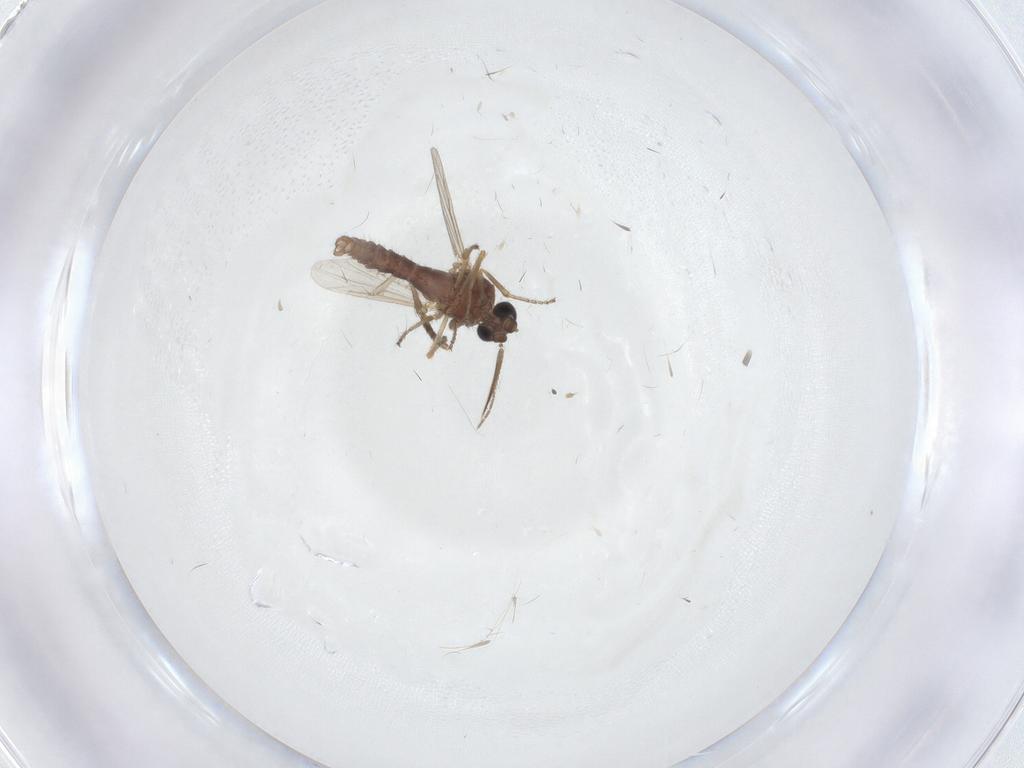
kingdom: Animalia
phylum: Arthropoda
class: Insecta
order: Diptera
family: Ceratopogonidae
